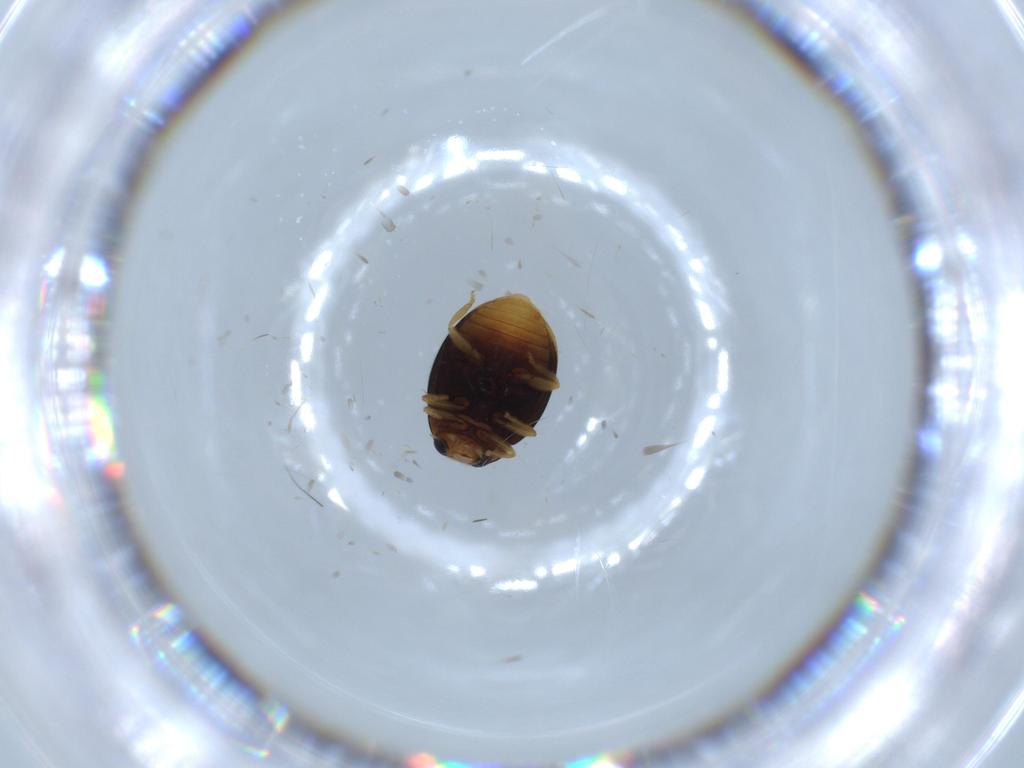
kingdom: Animalia
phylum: Arthropoda
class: Insecta
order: Coleoptera
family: Coccinellidae
